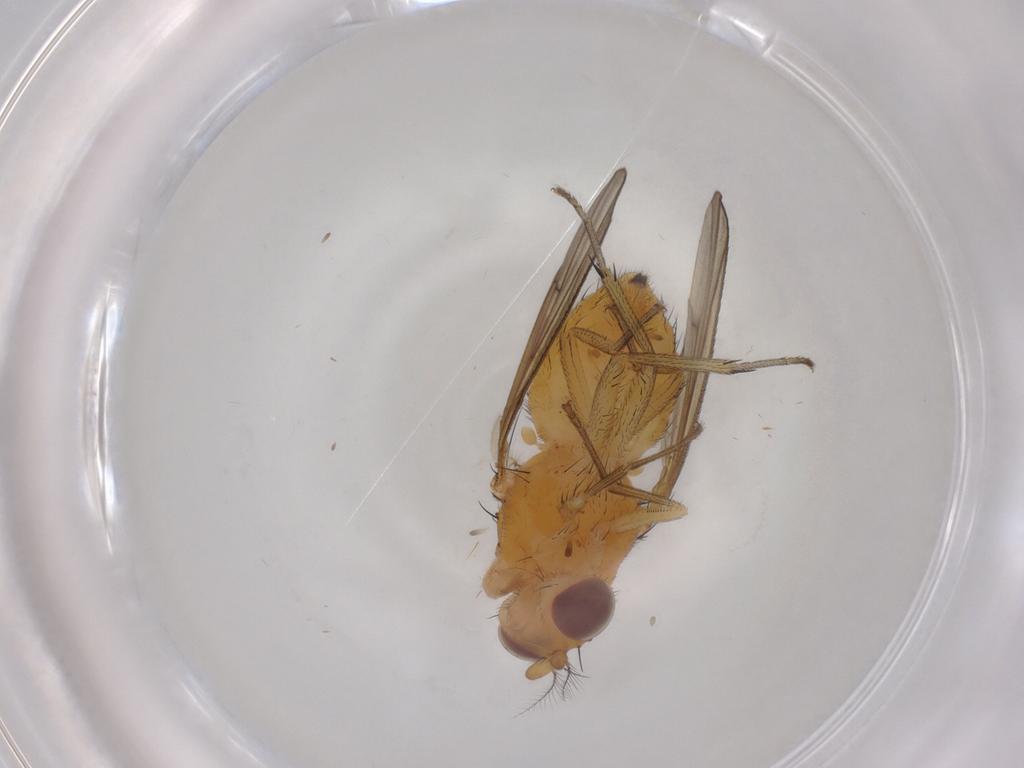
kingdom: Animalia
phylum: Arthropoda
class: Insecta
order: Diptera
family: Cecidomyiidae
